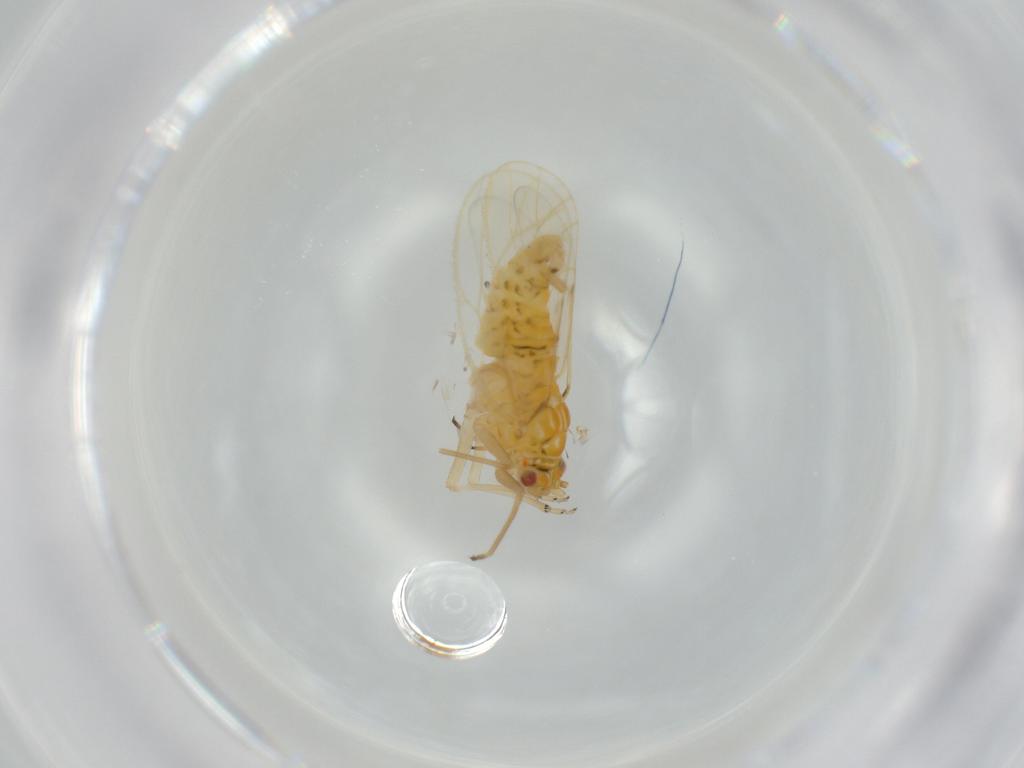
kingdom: Animalia
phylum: Arthropoda
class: Insecta
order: Hemiptera
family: Psyllidae
